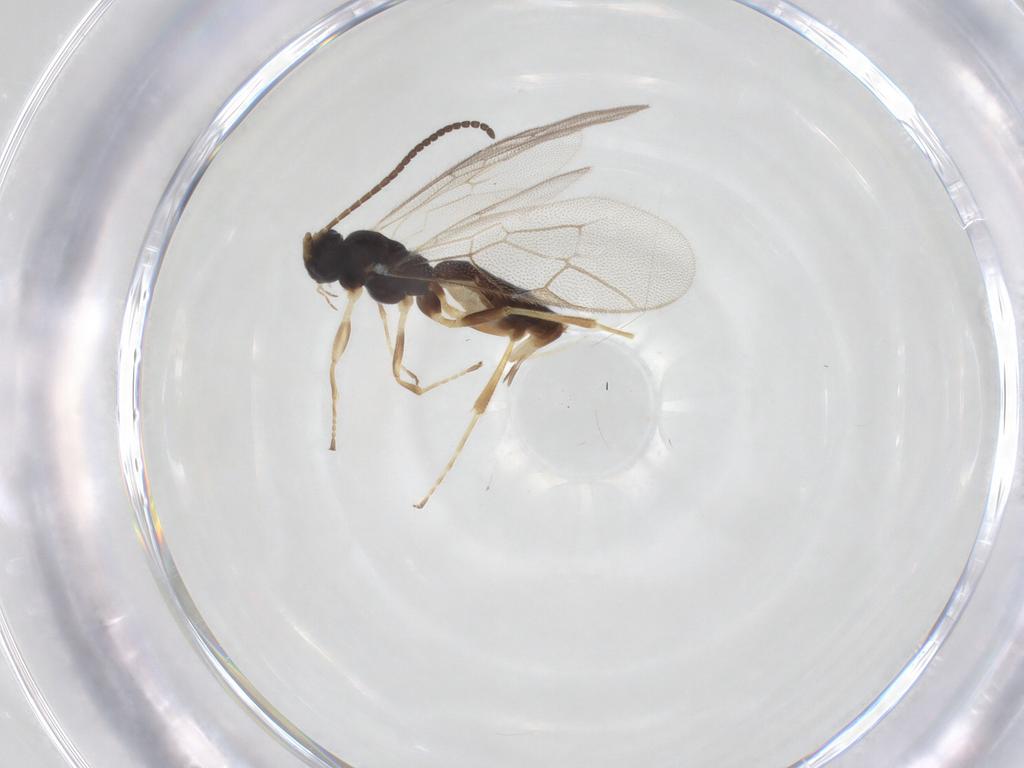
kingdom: Animalia
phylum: Arthropoda
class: Insecta
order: Hymenoptera
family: Ichneumonidae
